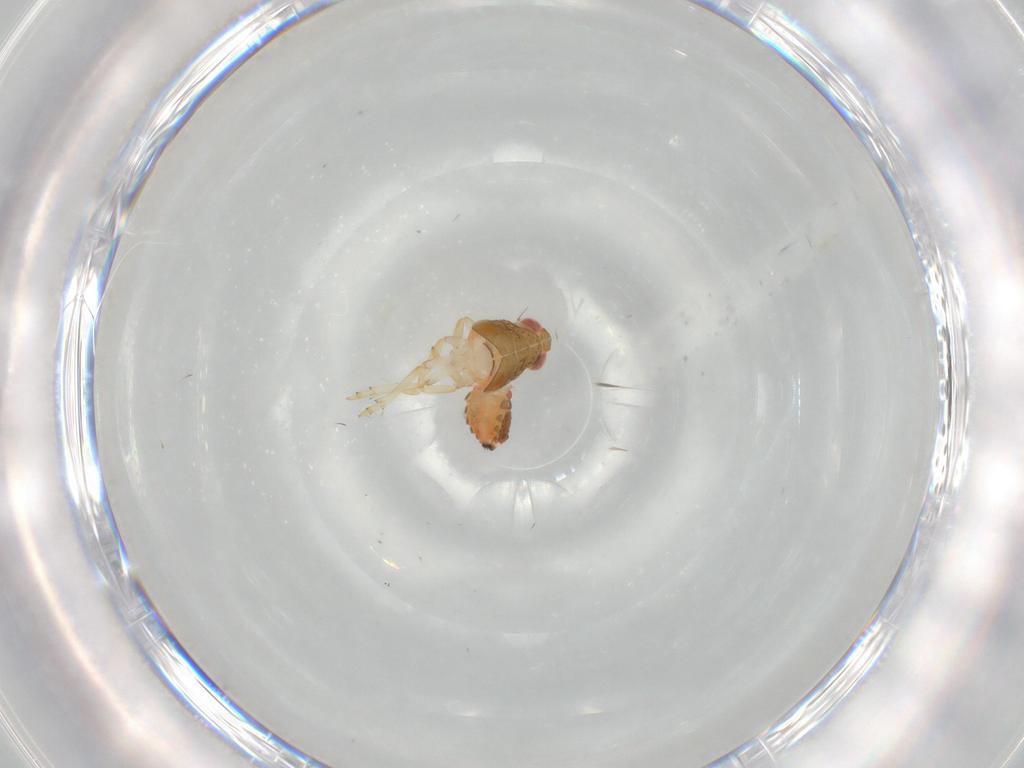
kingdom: Animalia
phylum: Arthropoda
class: Insecta
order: Hemiptera
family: Issidae
